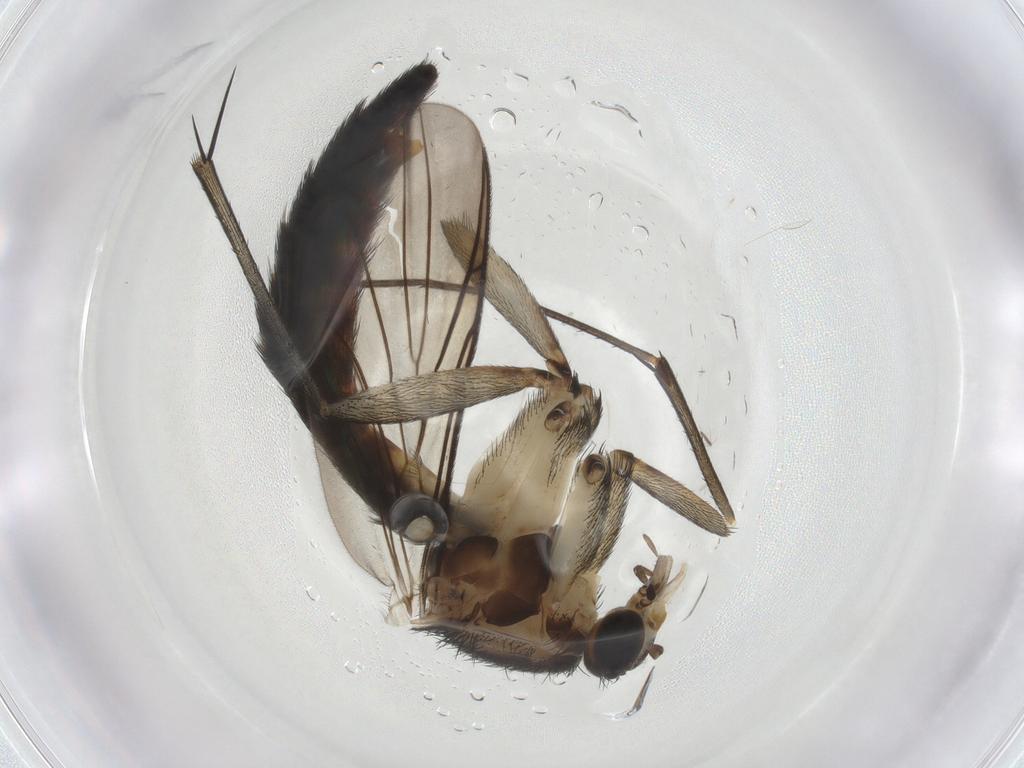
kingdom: Animalia
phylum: Arthropoda
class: Insecta
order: Diptera
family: Keroplatidae
